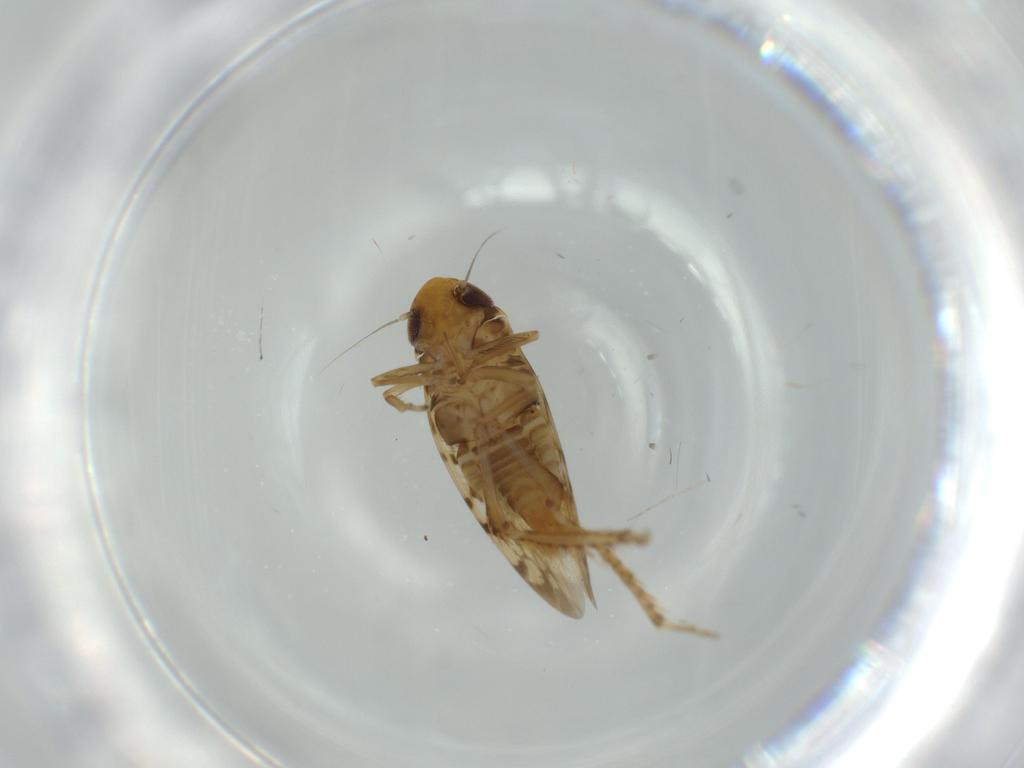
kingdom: Animalia
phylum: Arthropoda
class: Insecta
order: Hemiptera
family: Cicadellidae
